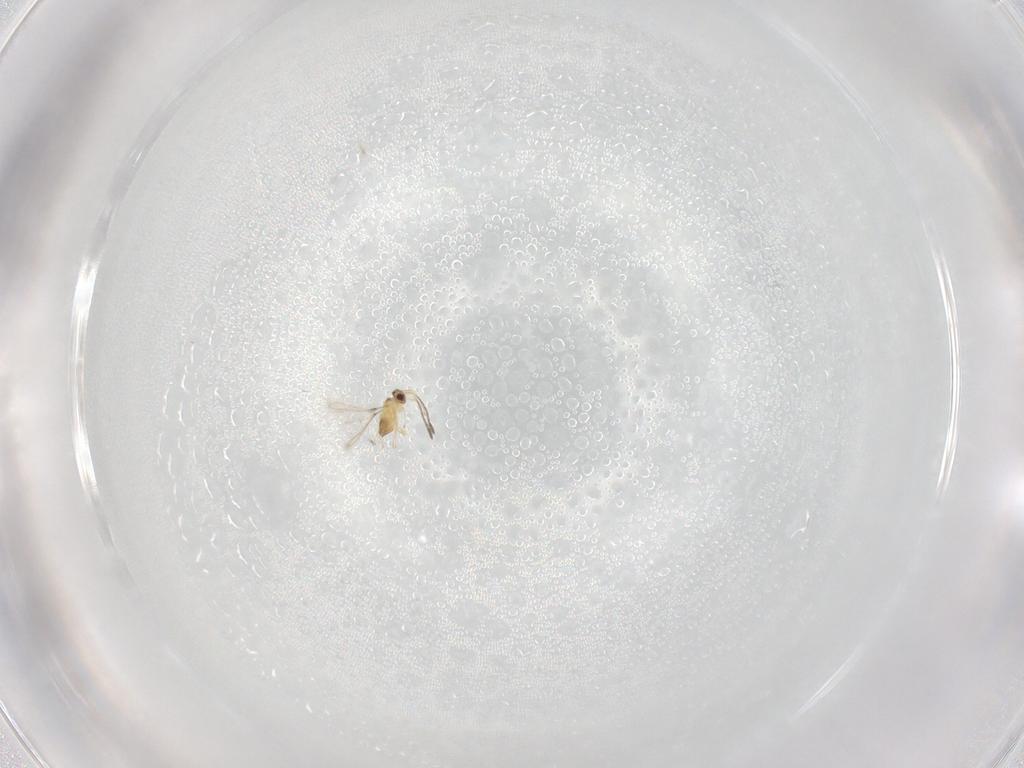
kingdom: Animalia
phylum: Arthropoda
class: Insecta
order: Hymenoptera
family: Mymaridae
